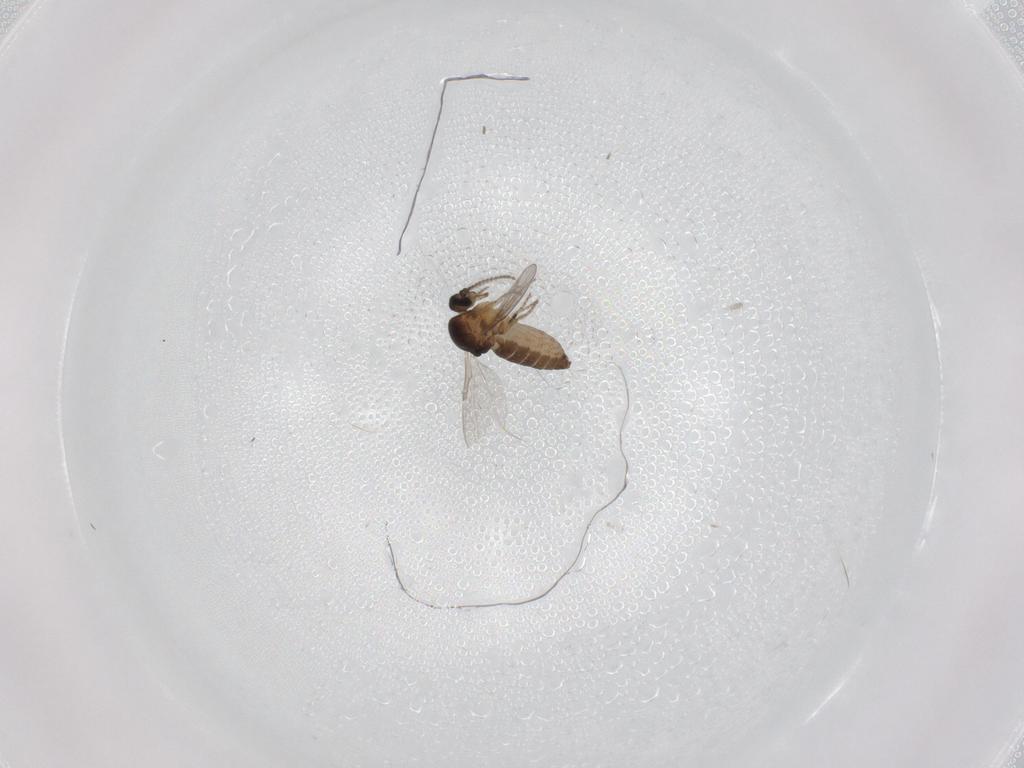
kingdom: Animalia
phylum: Arthropoda
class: Insecta
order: Diptera
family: Ceratopogonidae
